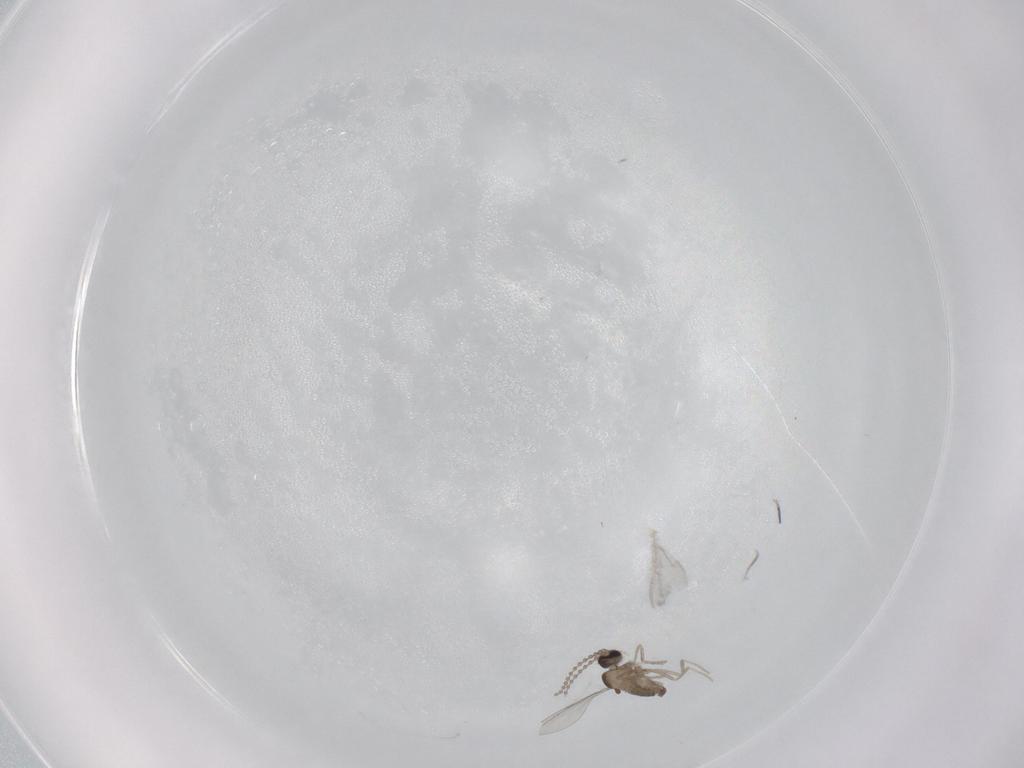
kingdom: Animalia
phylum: Arthropoda
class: Insecta
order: Diptera
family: Cecidomyiidae
